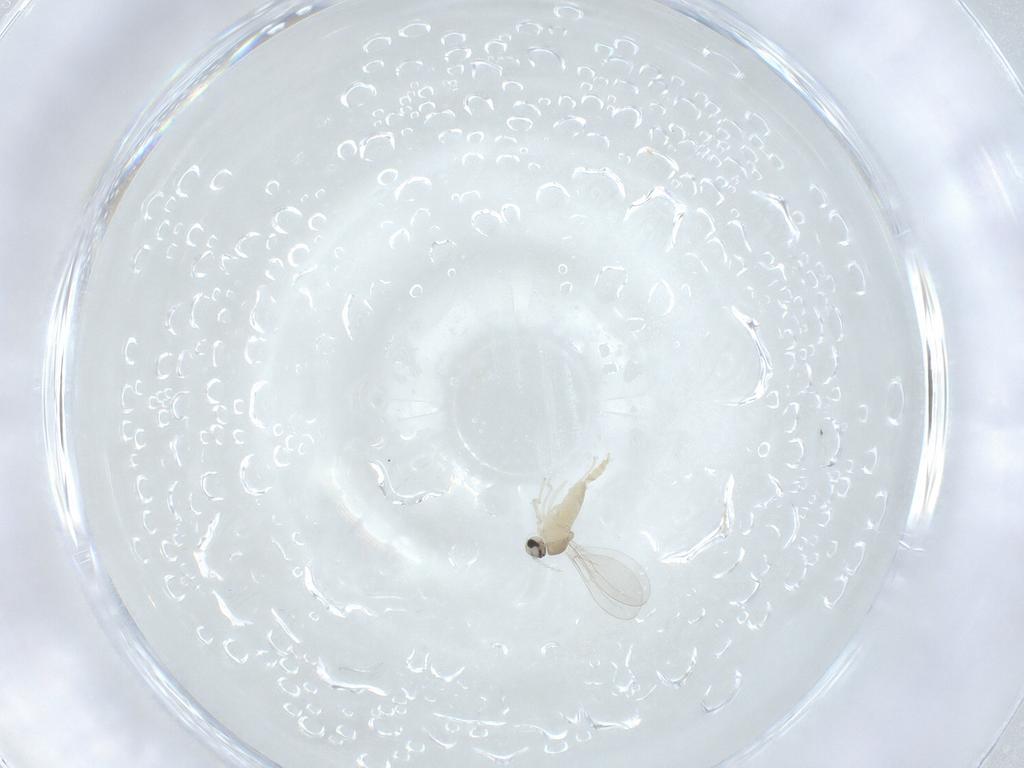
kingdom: Animalia
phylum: Arthropoda
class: Insecta
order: Diptera
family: Cecidomyiidae
